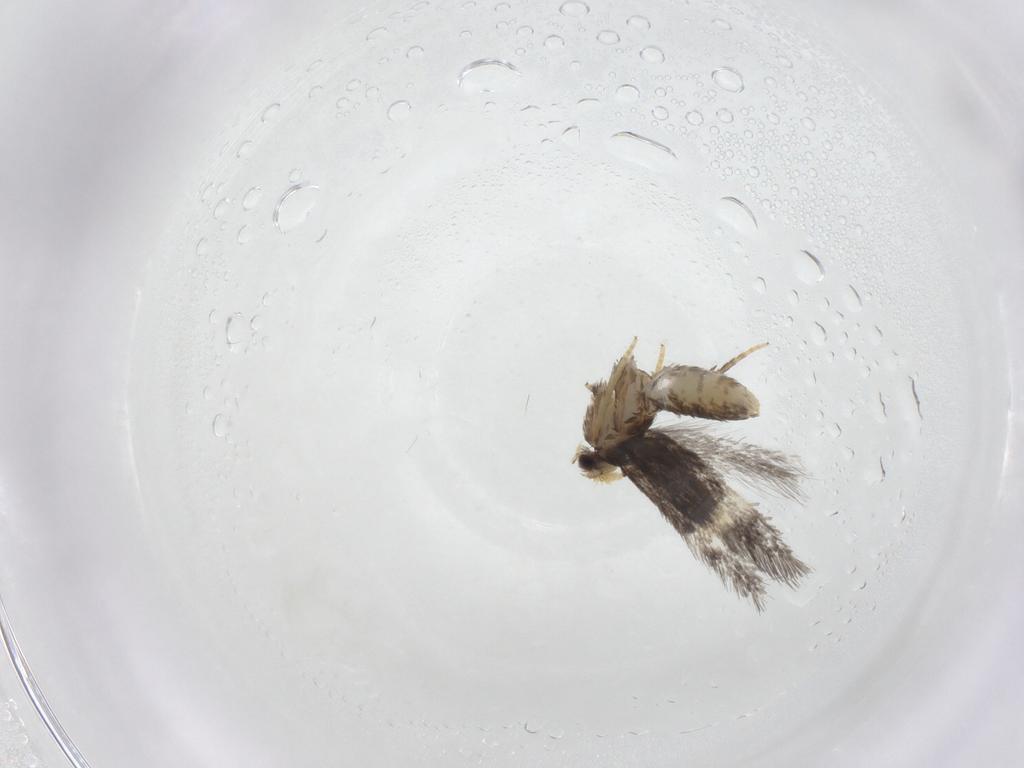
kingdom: Animalia
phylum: Arthropoda
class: Insecta
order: Lepidoptera
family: Nepticulidae
